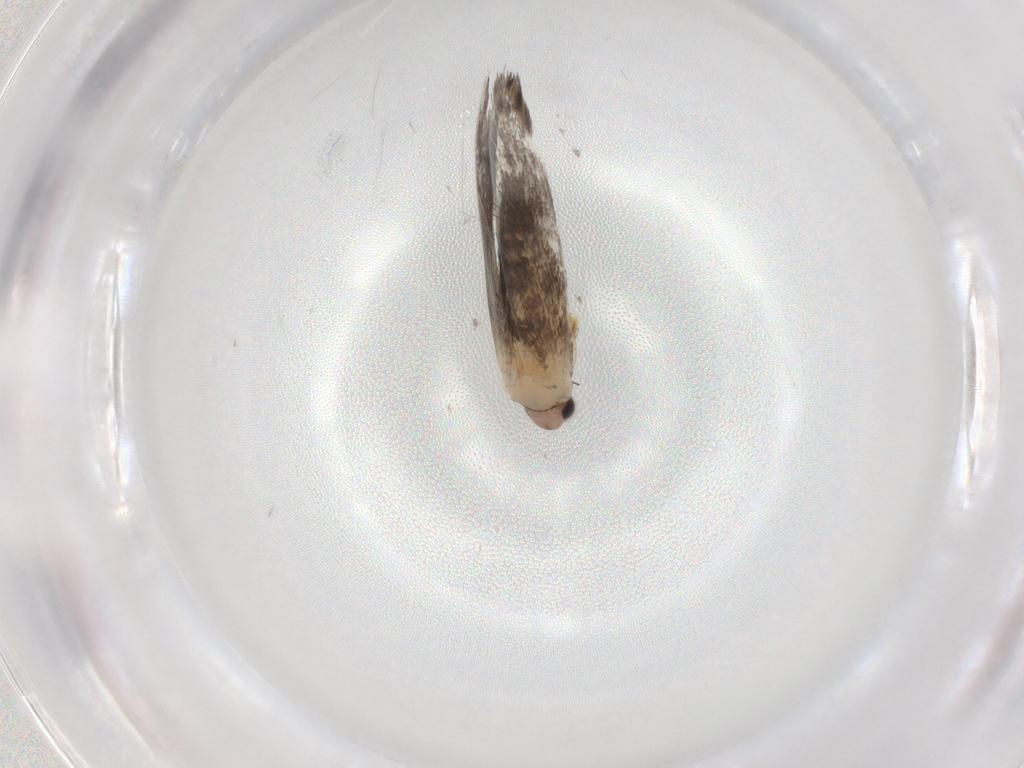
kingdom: Animalia
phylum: Arthropoda
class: Insecta
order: Lepidoptera
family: Tineidae
